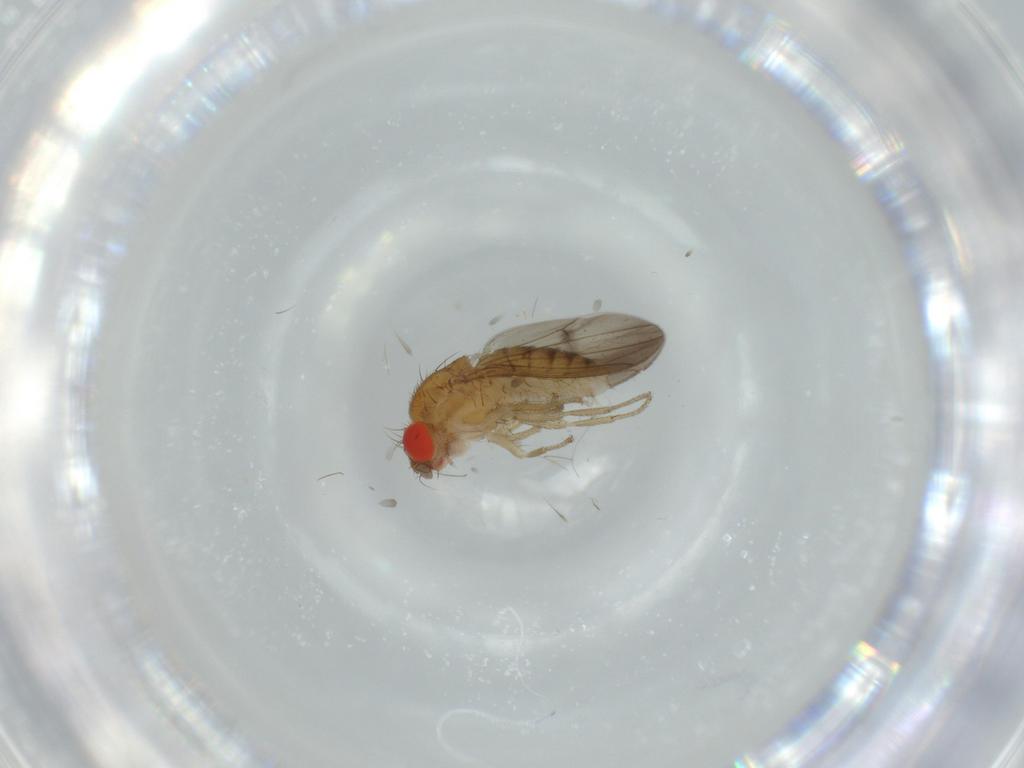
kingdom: Animalia
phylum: Arthropoda
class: Insecta
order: Diptera
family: Drosophilidae
